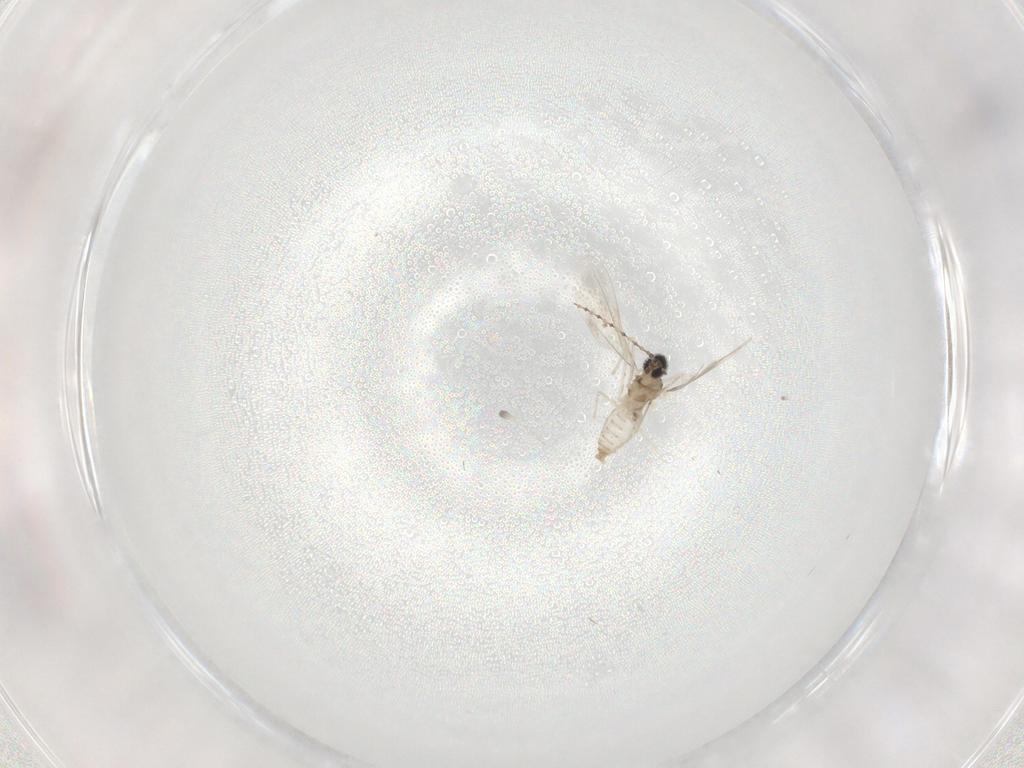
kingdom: Animalia
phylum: Arthropoda
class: Insecta
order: Diptera
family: Cecidomyiidae
